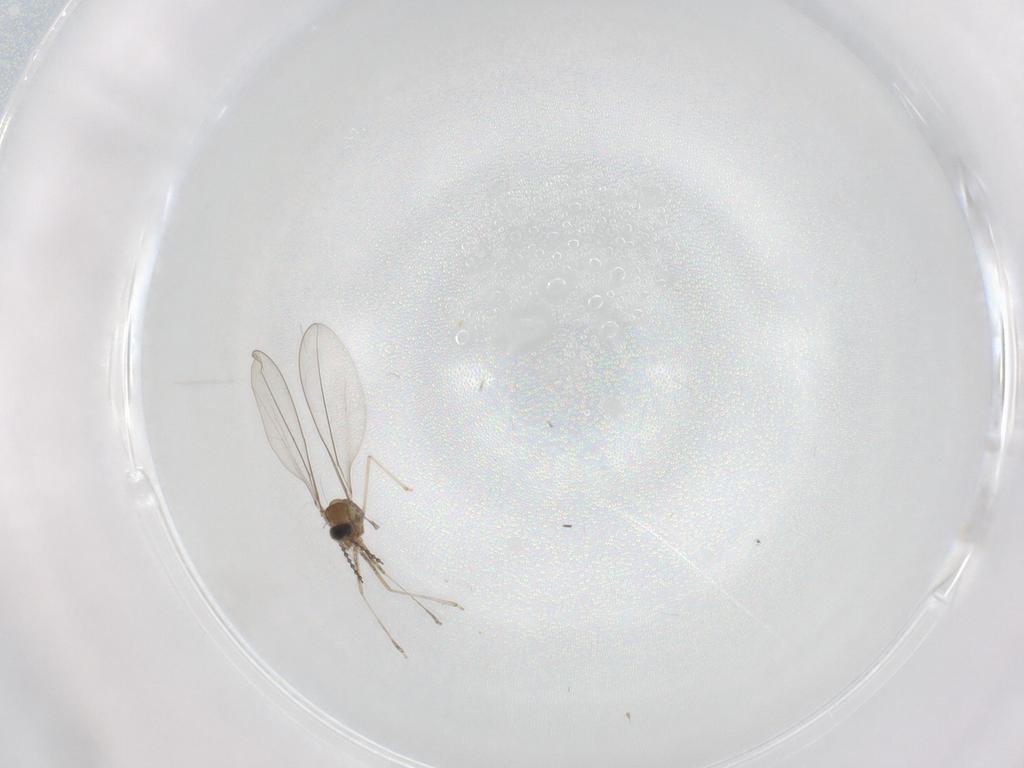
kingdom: Animalia
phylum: Arthropoda
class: Insecta
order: Diptera
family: Cecidomyiidae
